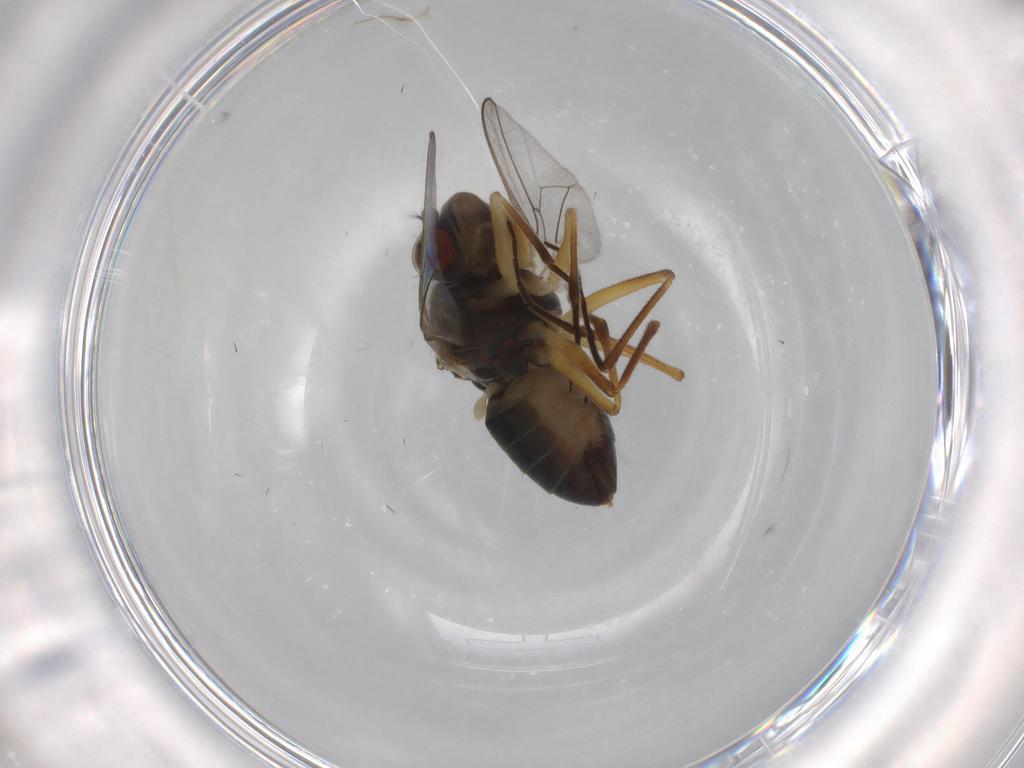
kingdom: Animalia
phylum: Arthropoda
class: Insecta
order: Diptera
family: Ephydridae
